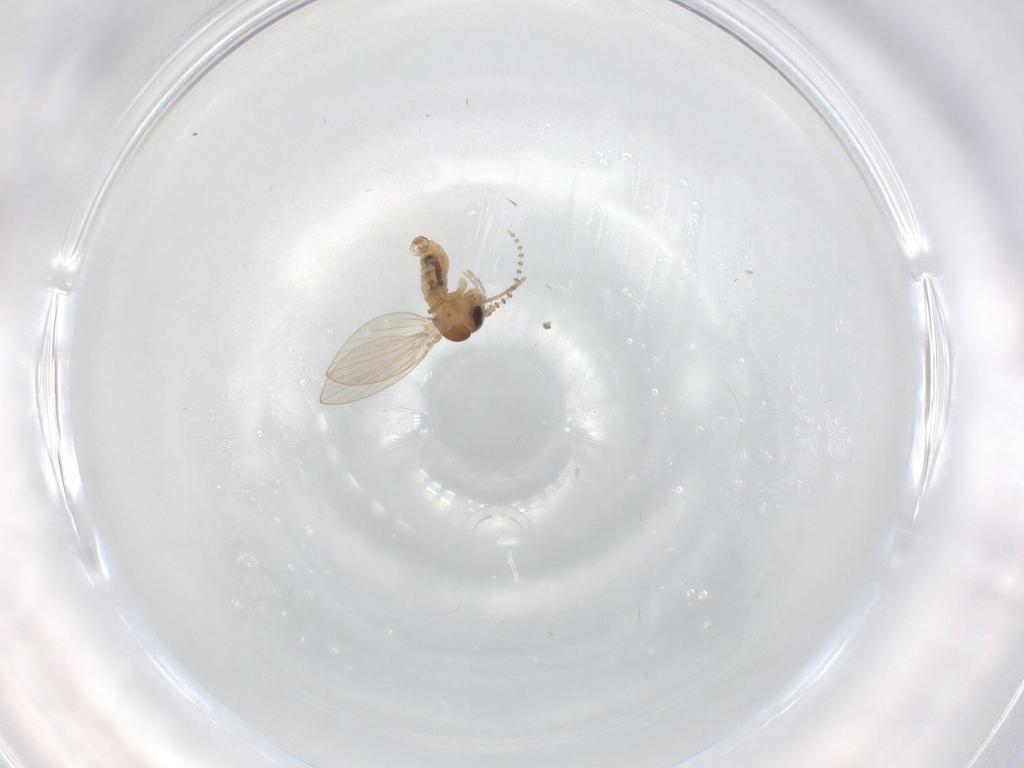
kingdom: Animalia
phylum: Arthropoda
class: Insecta
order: Diptera
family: Psychodidae
